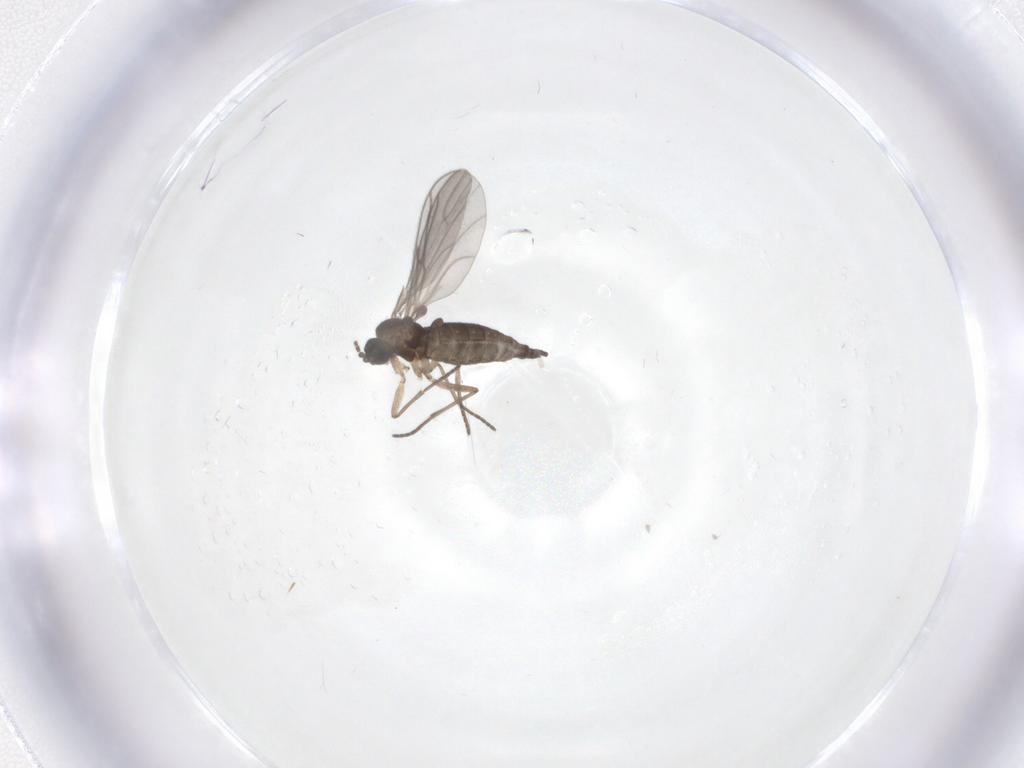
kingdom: Animalia
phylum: Arthropoda
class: Insecta
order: Diptera
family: Sciaridae
